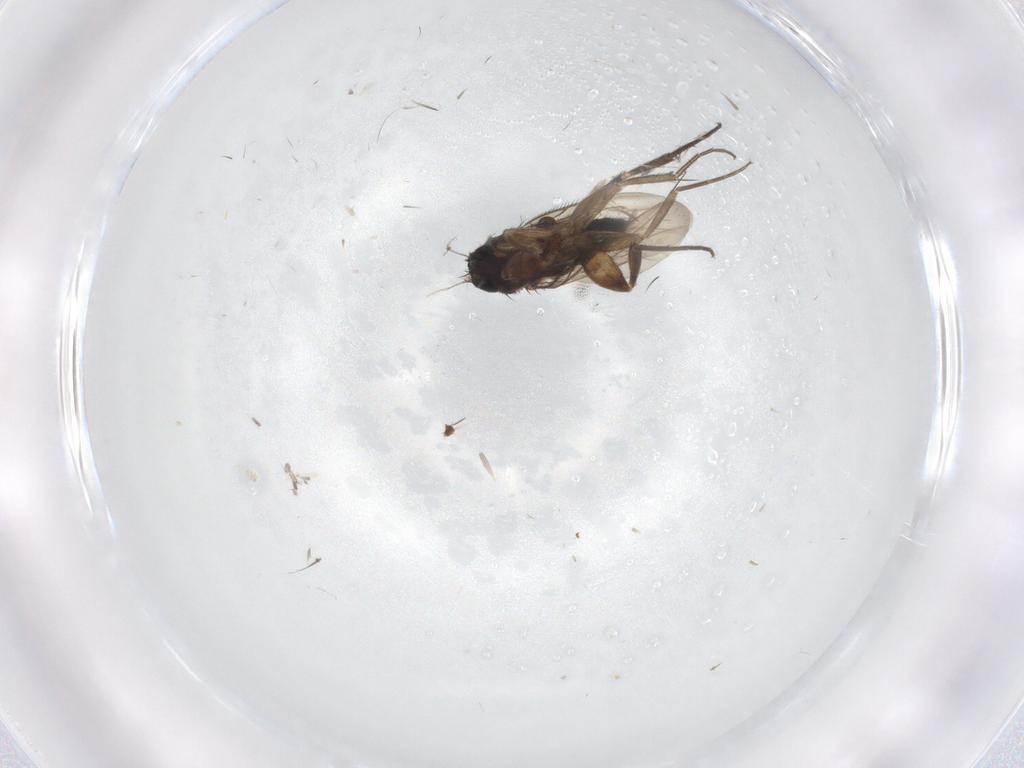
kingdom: Animalia
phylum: Arthropoda
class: Insecta
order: Diptera
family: Phoridae
